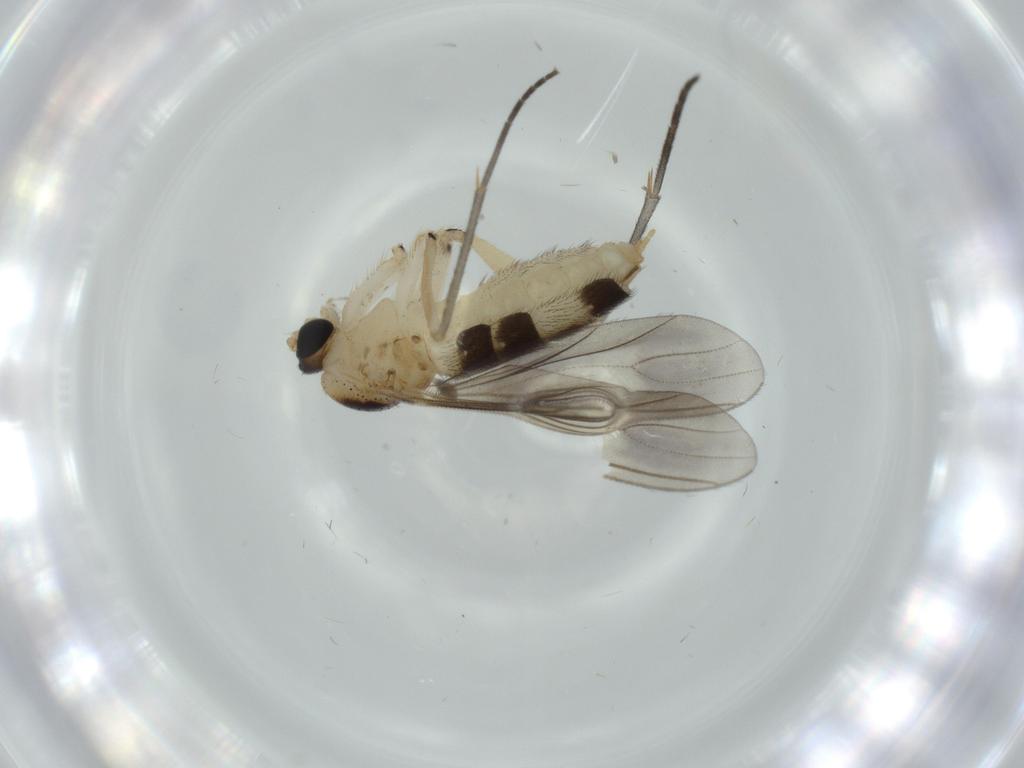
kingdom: Animalia
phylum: Arthropoda
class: Insecta
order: Diptera
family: Sciaridae
